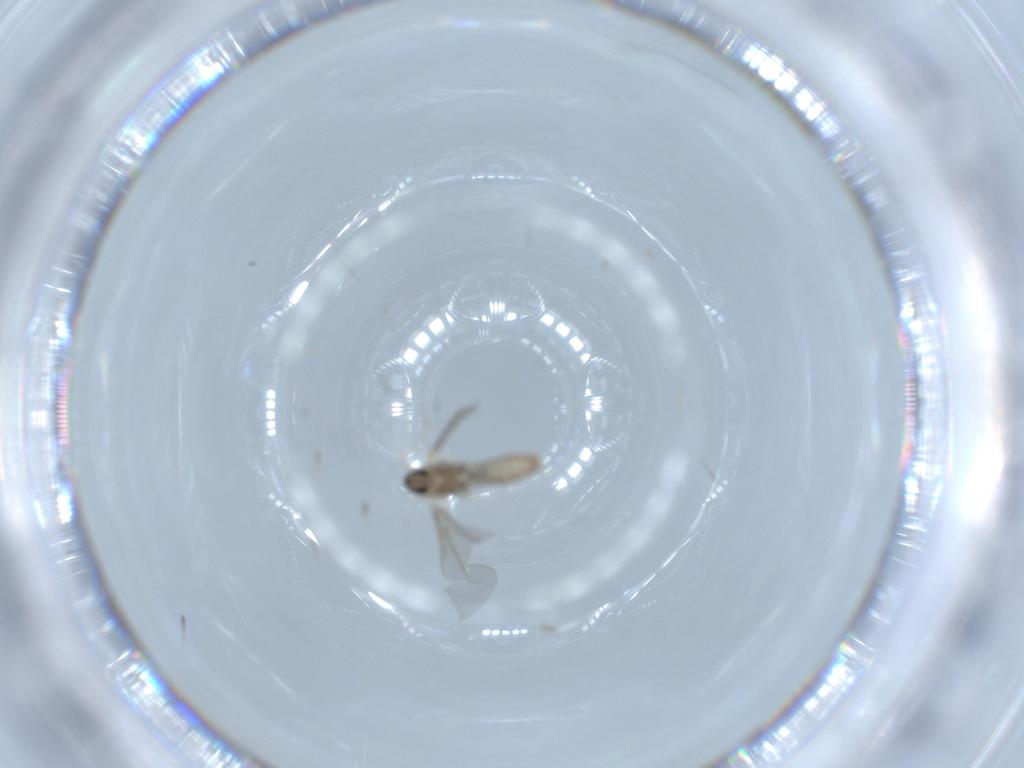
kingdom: Animalia
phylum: Arthropoda
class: Insecta
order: Diptera
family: Cecidomyiidae
